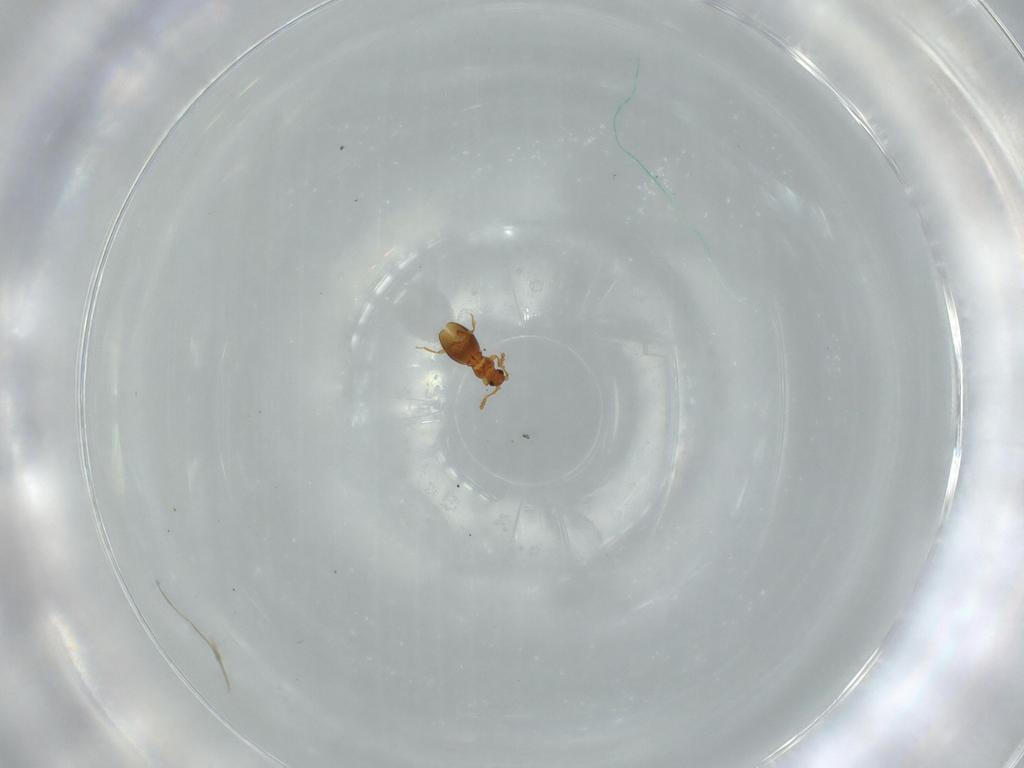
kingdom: Animalia
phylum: Arthropoda
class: Insecta
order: Coleoptera
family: Staphylinidae
